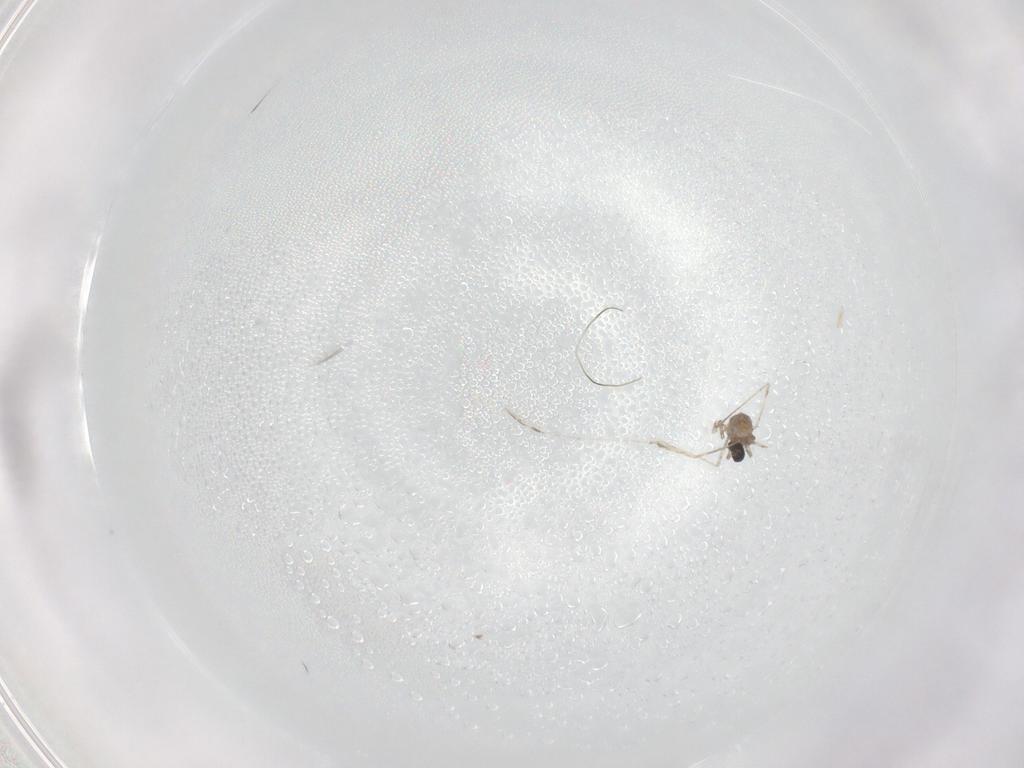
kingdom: Animalia
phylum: Arthropoda
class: Insecta
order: Diptera
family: Cecidomyiidae
